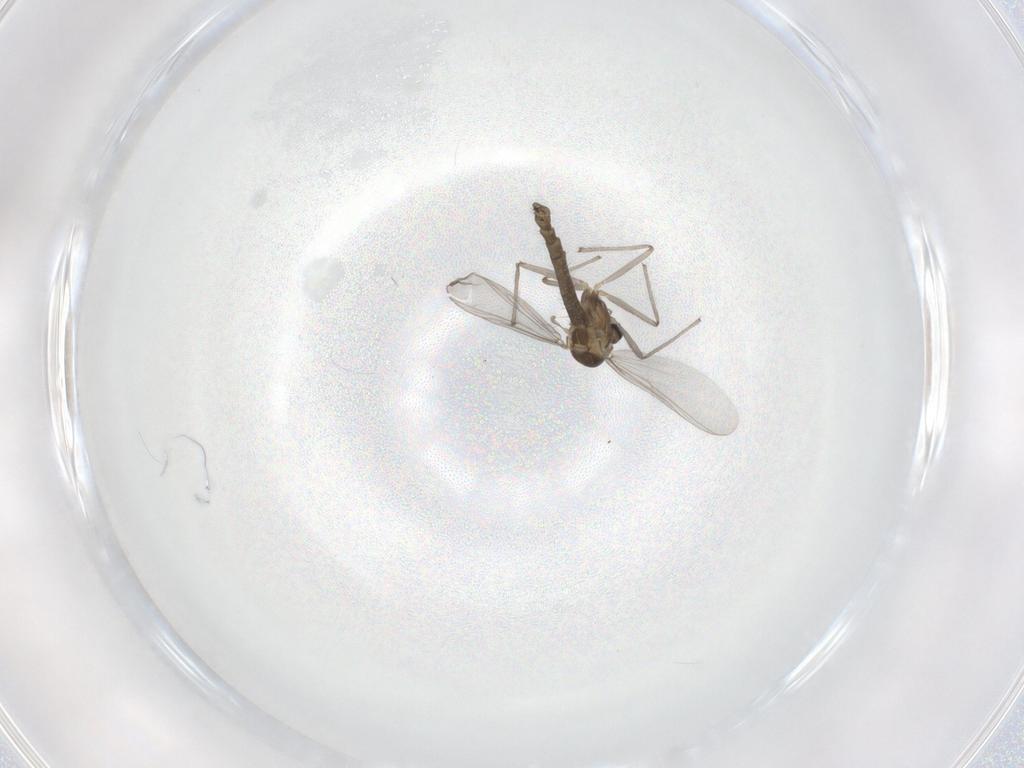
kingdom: Animalia
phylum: Arthropoda
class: Insecta
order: Diptera
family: Chironomidae
